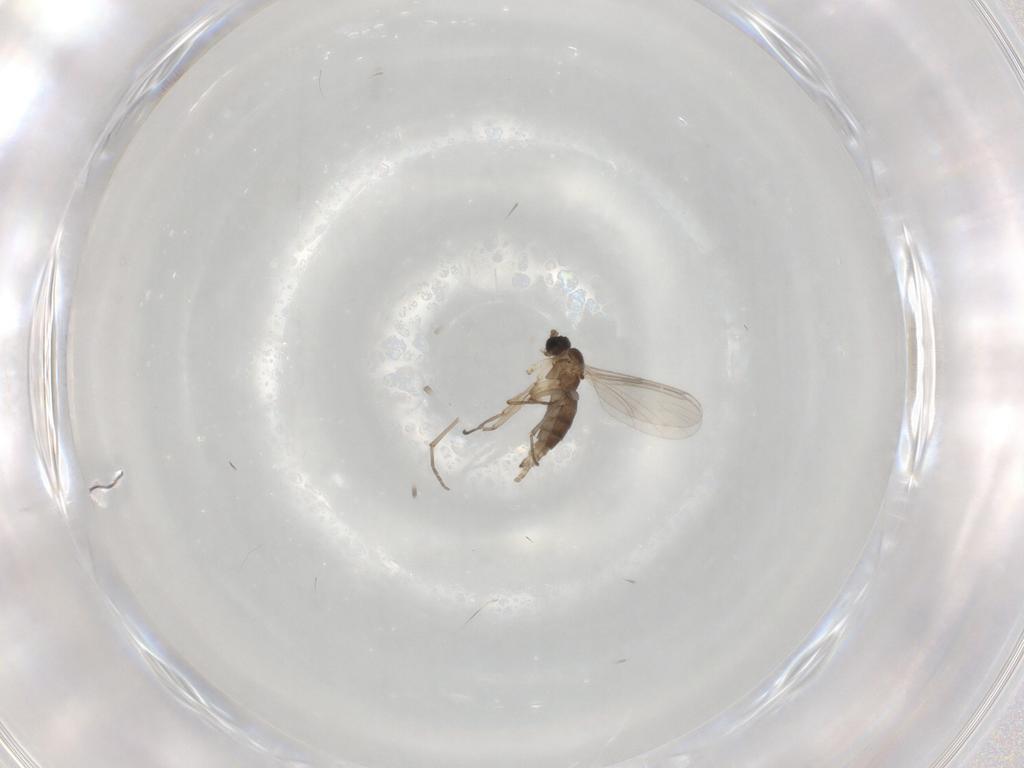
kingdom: Animalia
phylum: Arthropoda
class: Insecta
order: Diptera
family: Sciaridae
